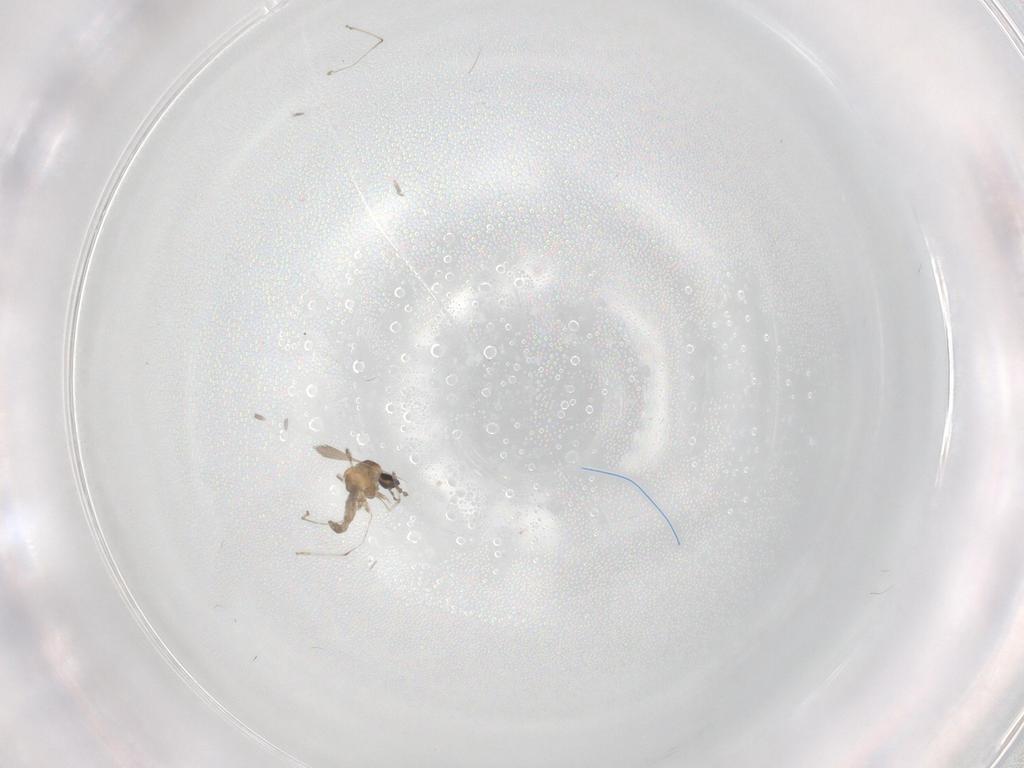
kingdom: Animalia
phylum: Arthropoda
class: Insecta
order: Diptera
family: Cecidomyiidae
